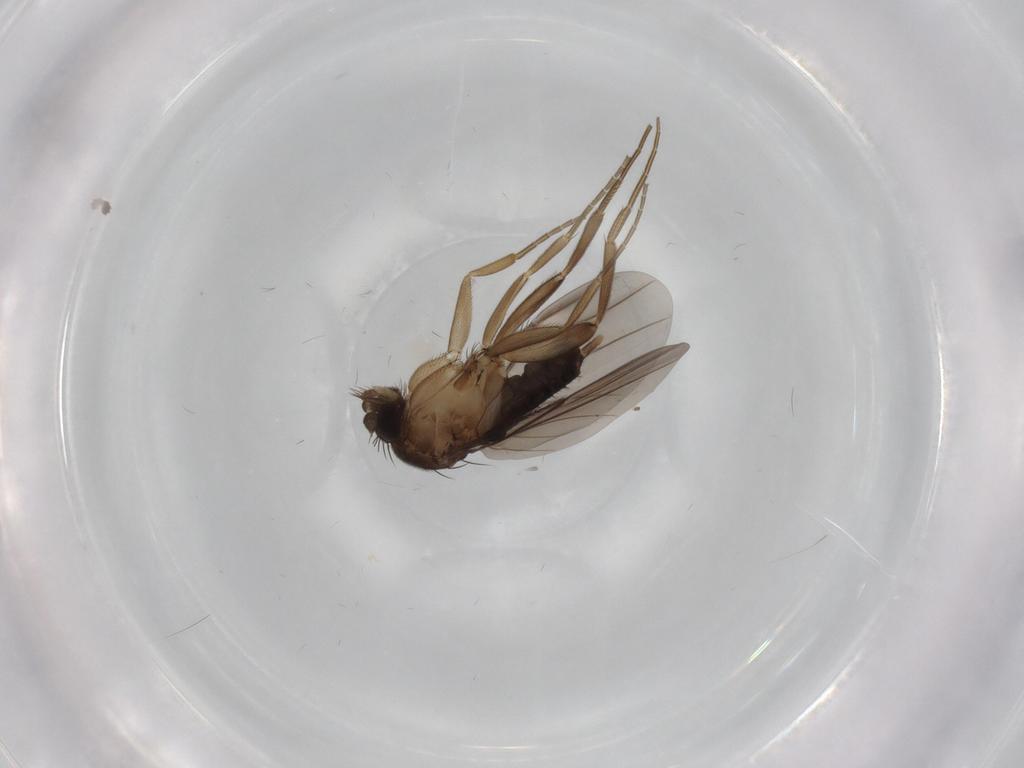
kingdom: Animalia
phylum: Arthropoda
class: Insecta
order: Diptera
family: Phoridae
